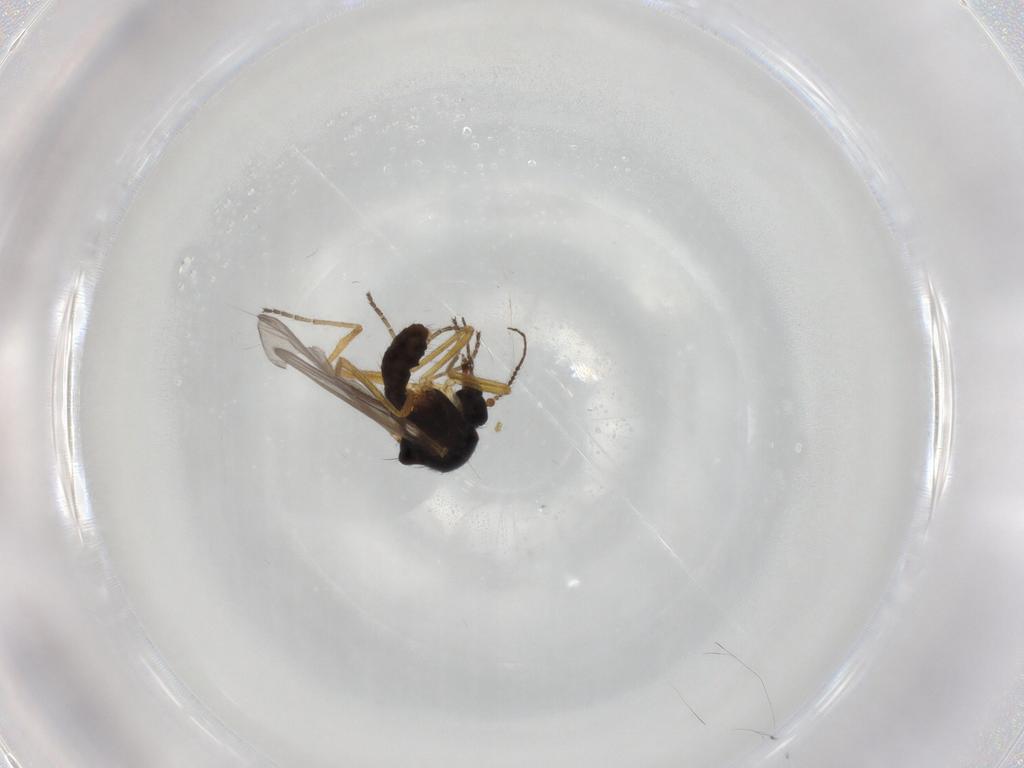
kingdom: Animalia
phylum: Arthropoda
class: Insecta
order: Diptera
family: Ceratopogonidae
